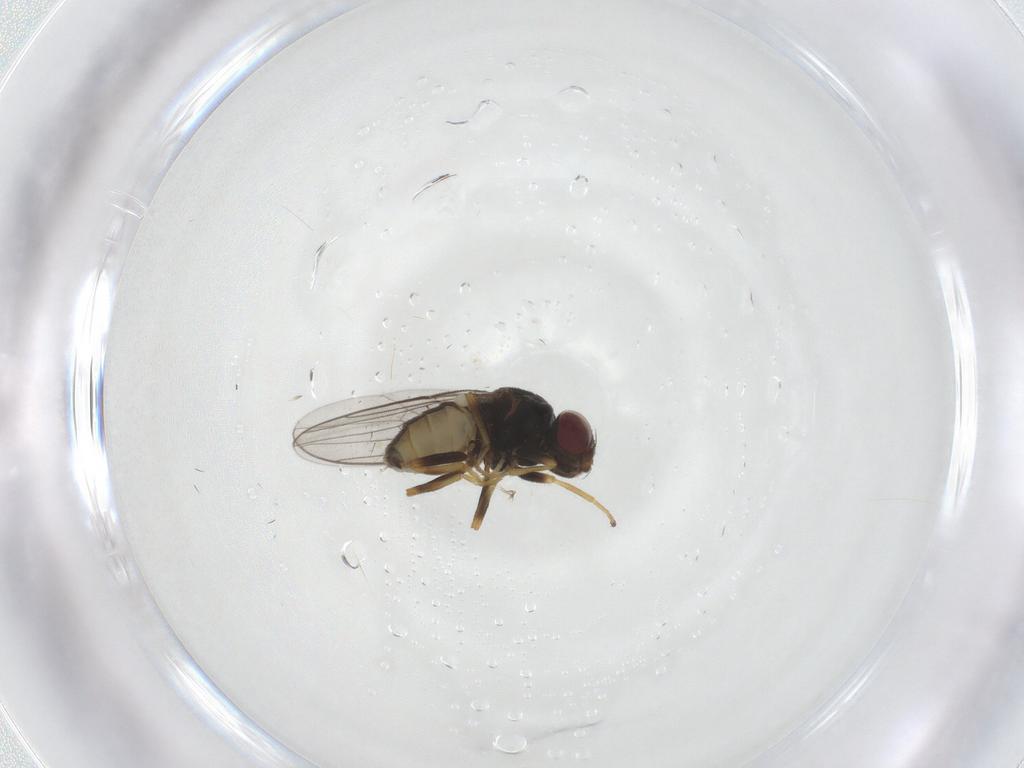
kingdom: Animalia
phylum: Arthropoda
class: Insecta
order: Diptera
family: Chloropidae
